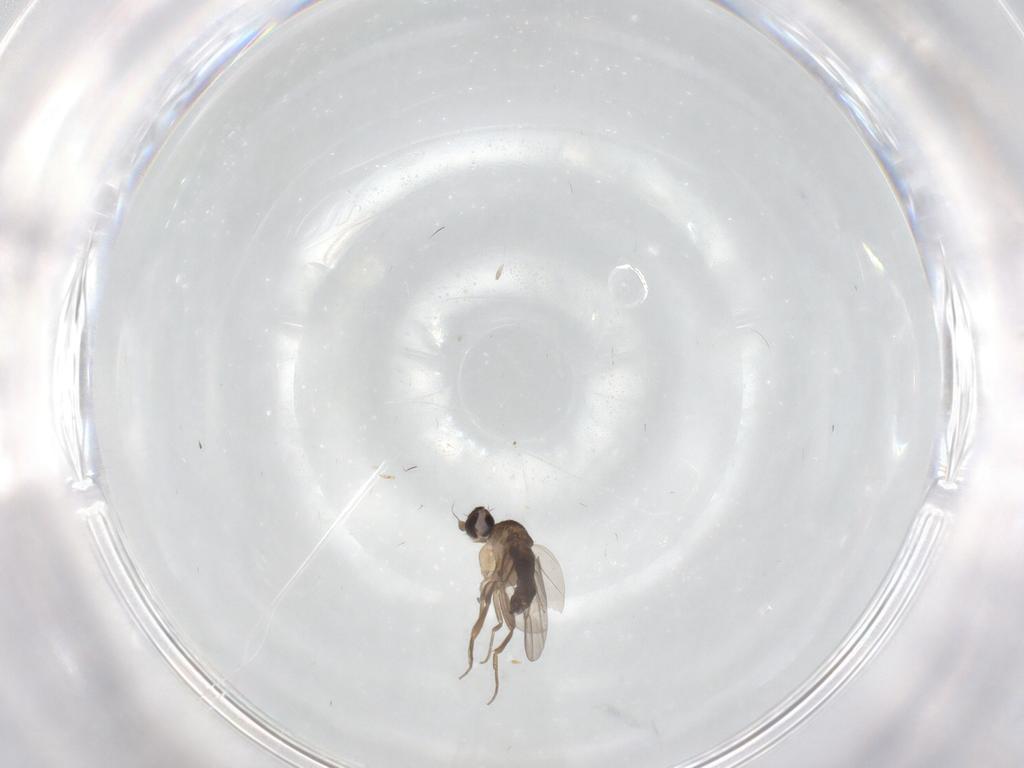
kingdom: Animalia
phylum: Arthropoda
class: Insecta
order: Diptera
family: Phoridae
